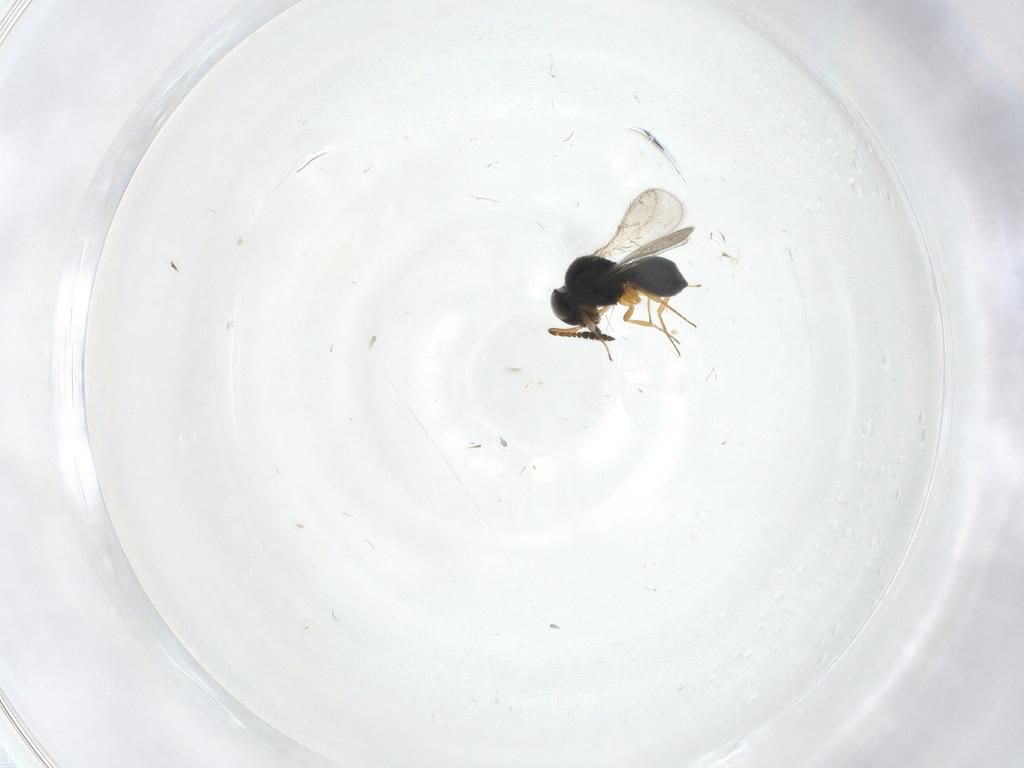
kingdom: Animalia
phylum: Arthropoda
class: Insecta
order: Hymenoptera
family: Scelionidae
